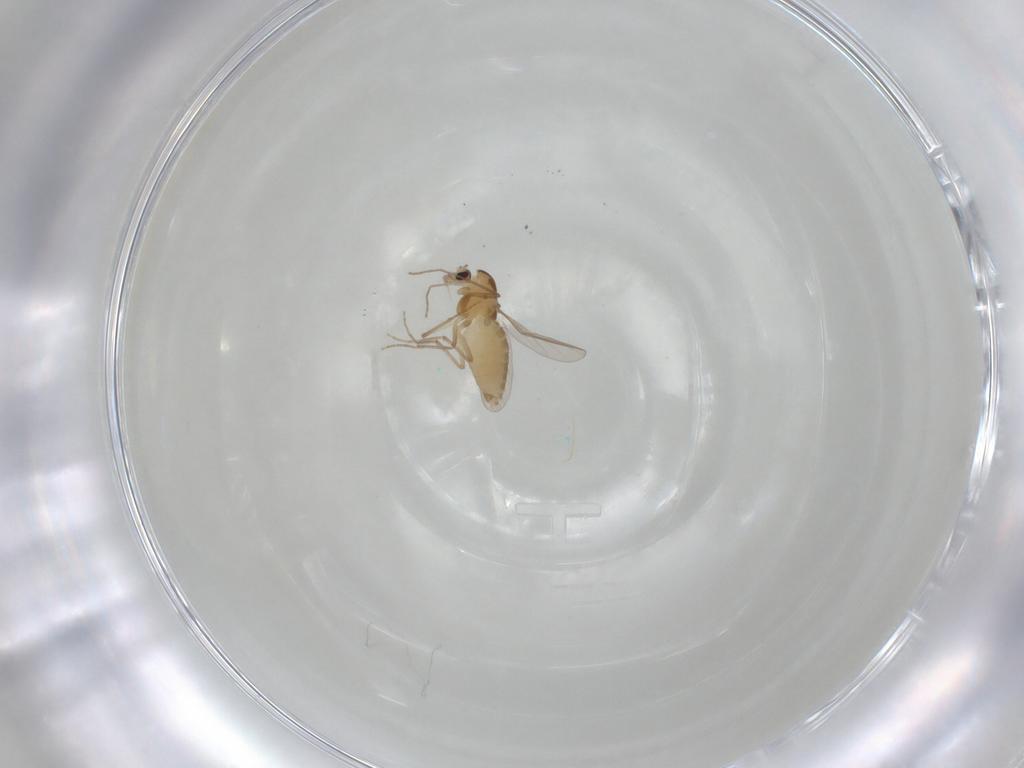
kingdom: Animalia
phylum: Arthropoda
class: Insecta
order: Diptera
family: Chironomidae
